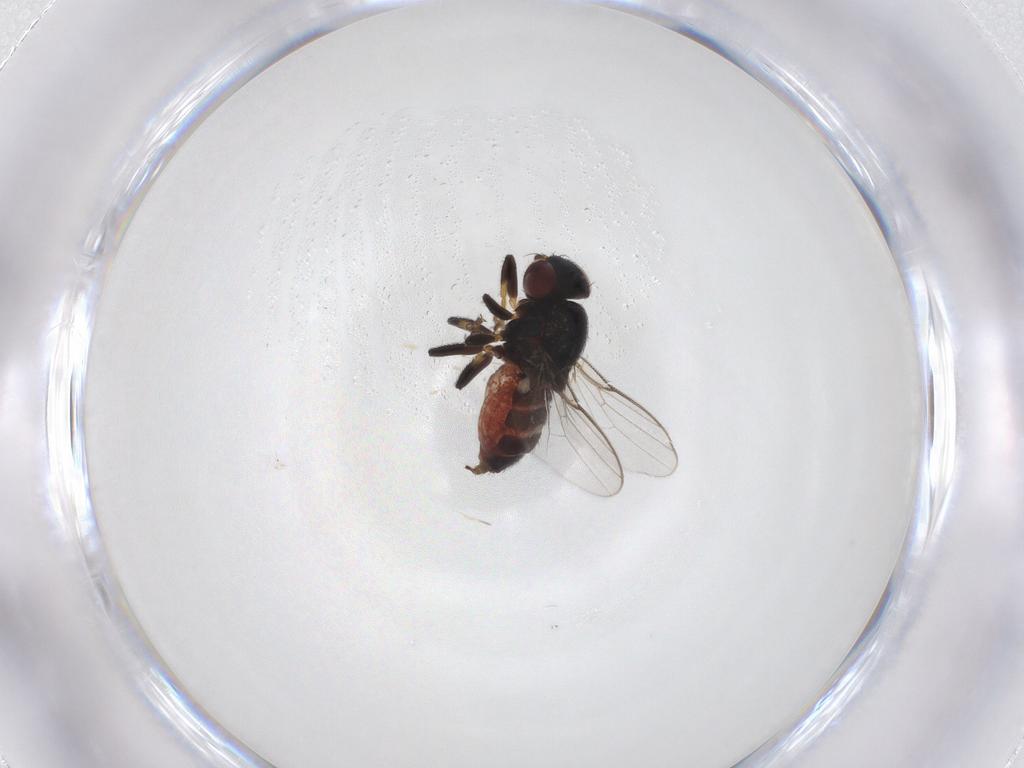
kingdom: Animalia
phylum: Arthropoda
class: Insecta
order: Diptera
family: Chloropidae
